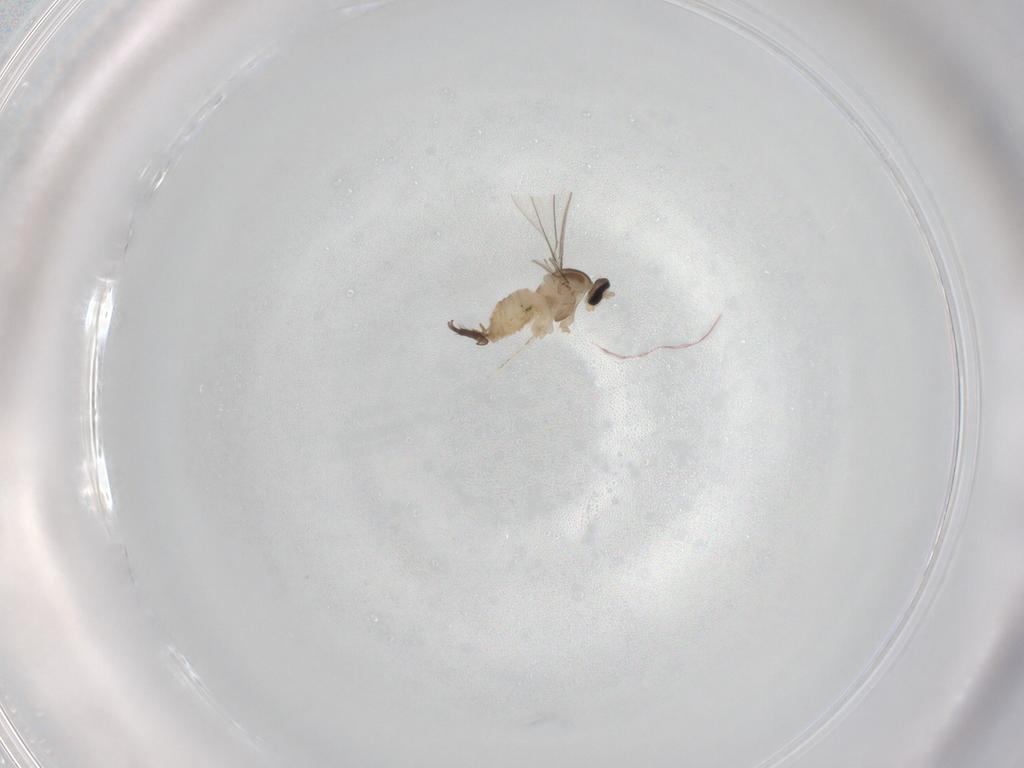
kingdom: Animalia
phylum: Arthropoda
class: Insecta
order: Diptera
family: Cecidomyiidae
